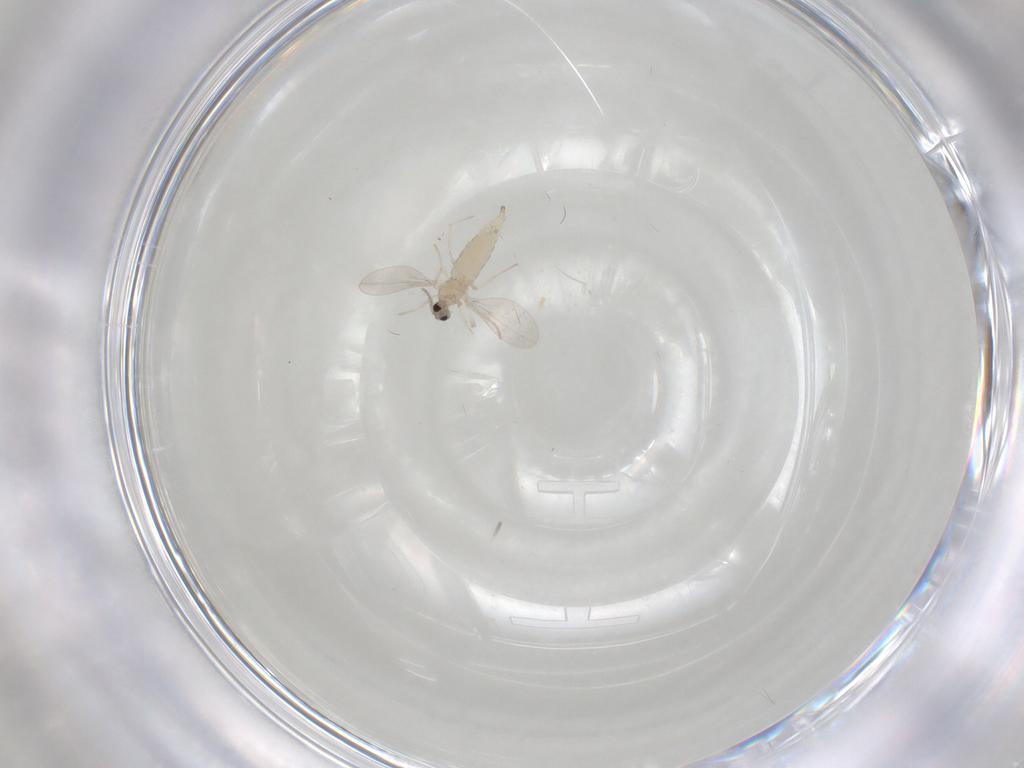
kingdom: Animalia
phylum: Arthropoda
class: Insecta
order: Diptera
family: Cecidomyiidae
